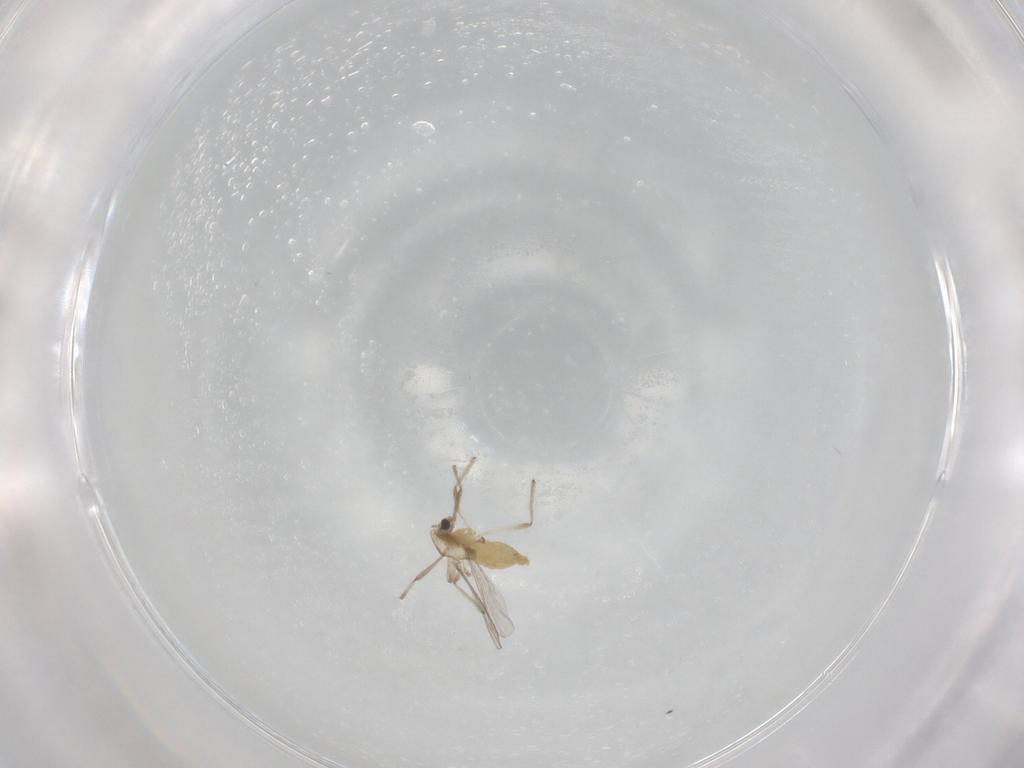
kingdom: Animalia
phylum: Arthropoda
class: Insecta
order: Diptera
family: Chironomidae
